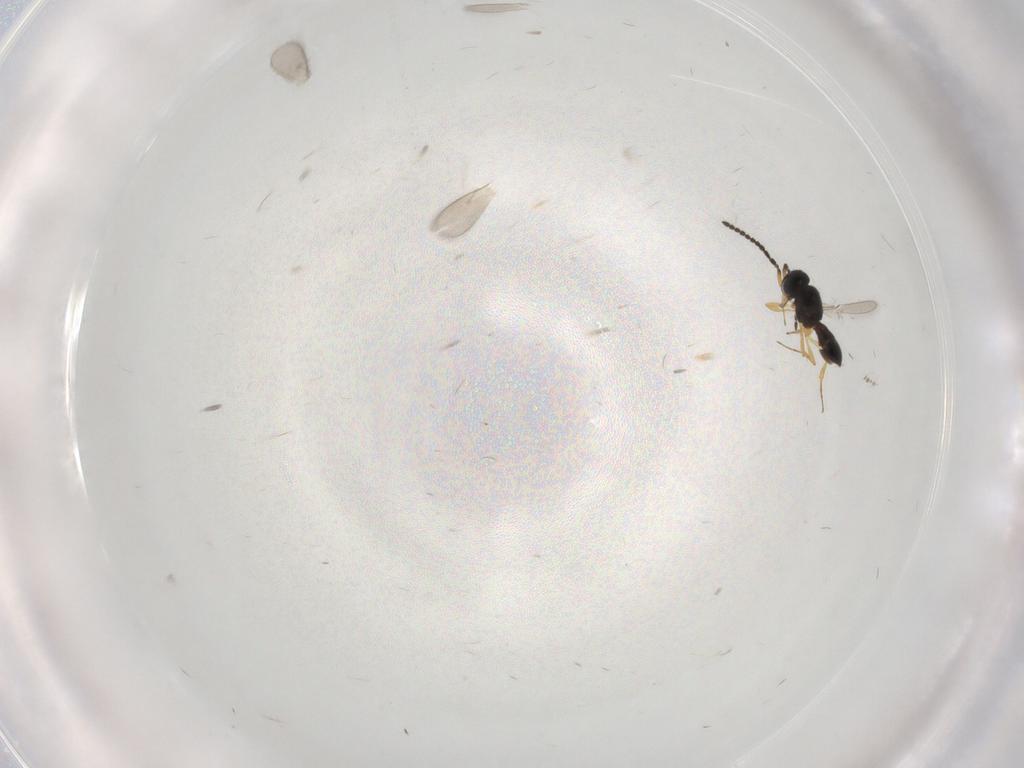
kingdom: Animalia
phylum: Arthropoda
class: Insecta
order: Hymenoptera
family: Scelionidae
